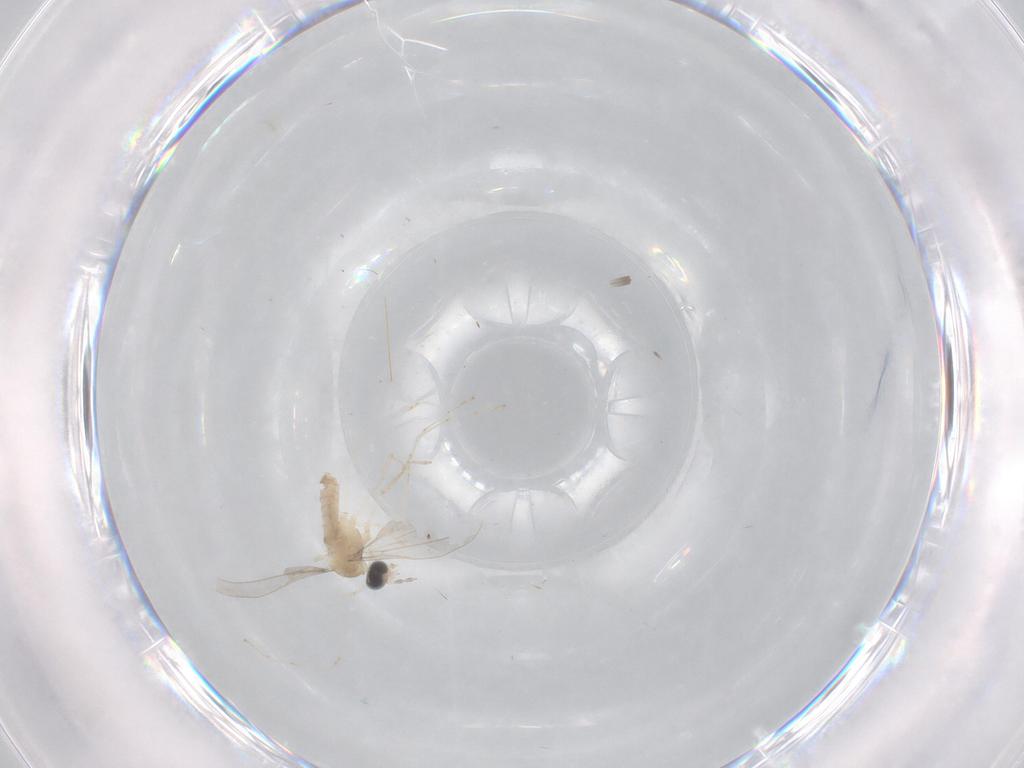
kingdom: Animalia
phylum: Arthropoda
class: Insecta
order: Diptera
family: Cecidomyiidae
